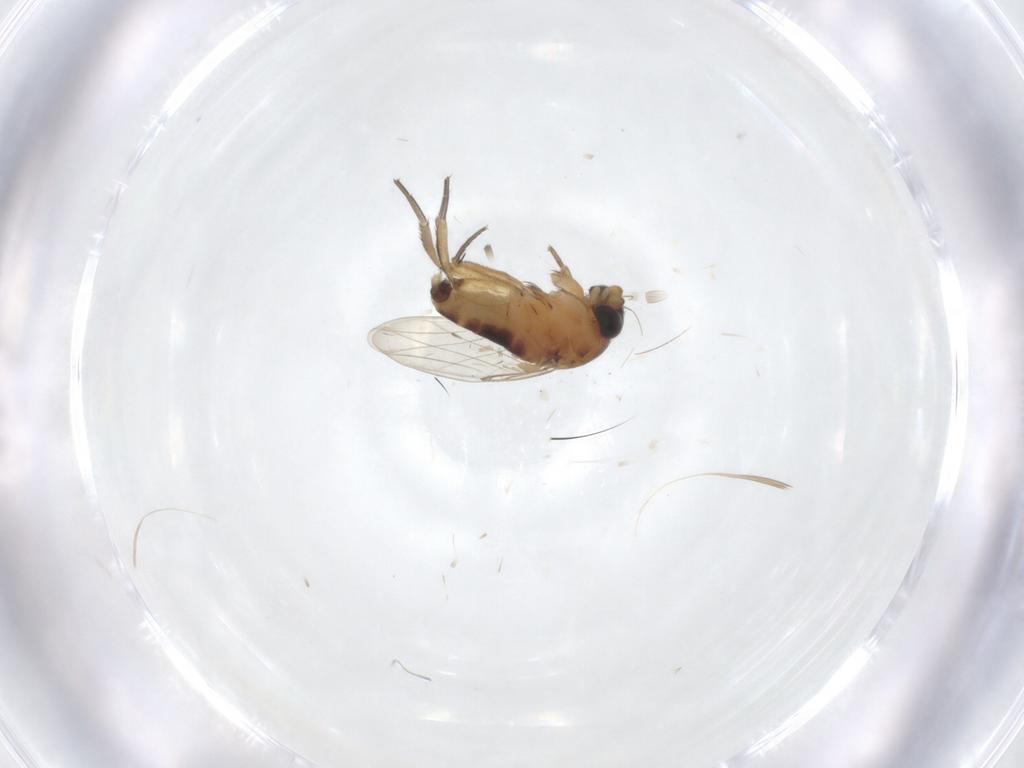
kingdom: Animalia
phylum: Arthropoda
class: Insecta
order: Diptera
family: Phoridae
